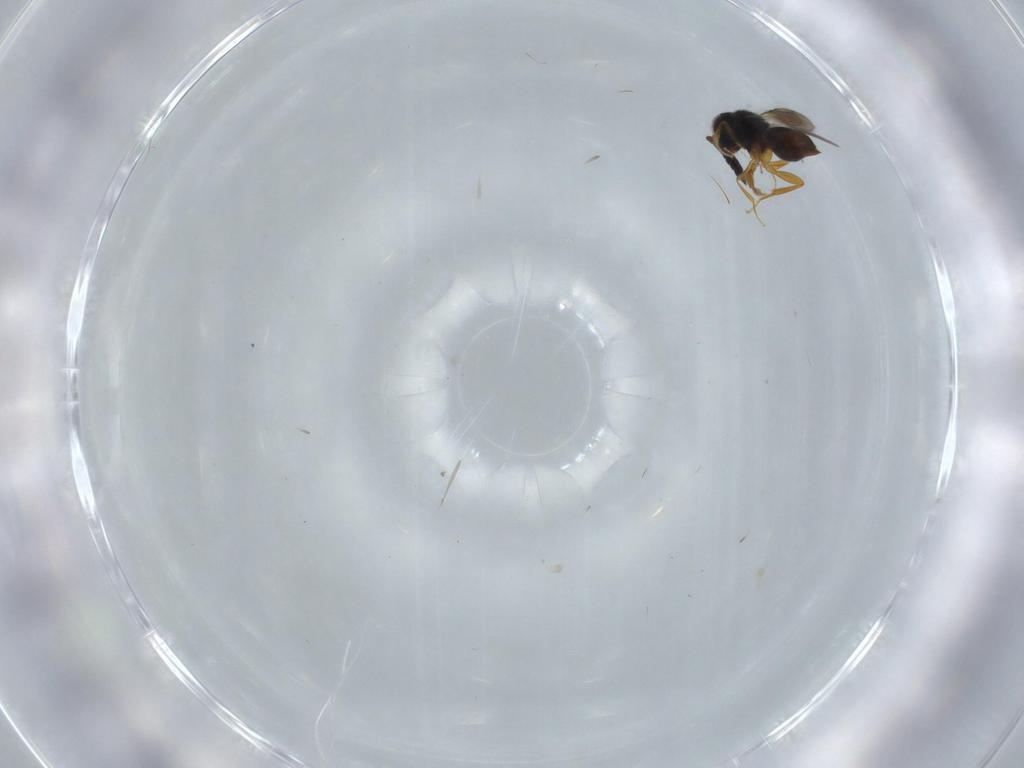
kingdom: Animalia
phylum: Arthropoda
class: Insecta
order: Hymenoptera
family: Ceraphronidae
